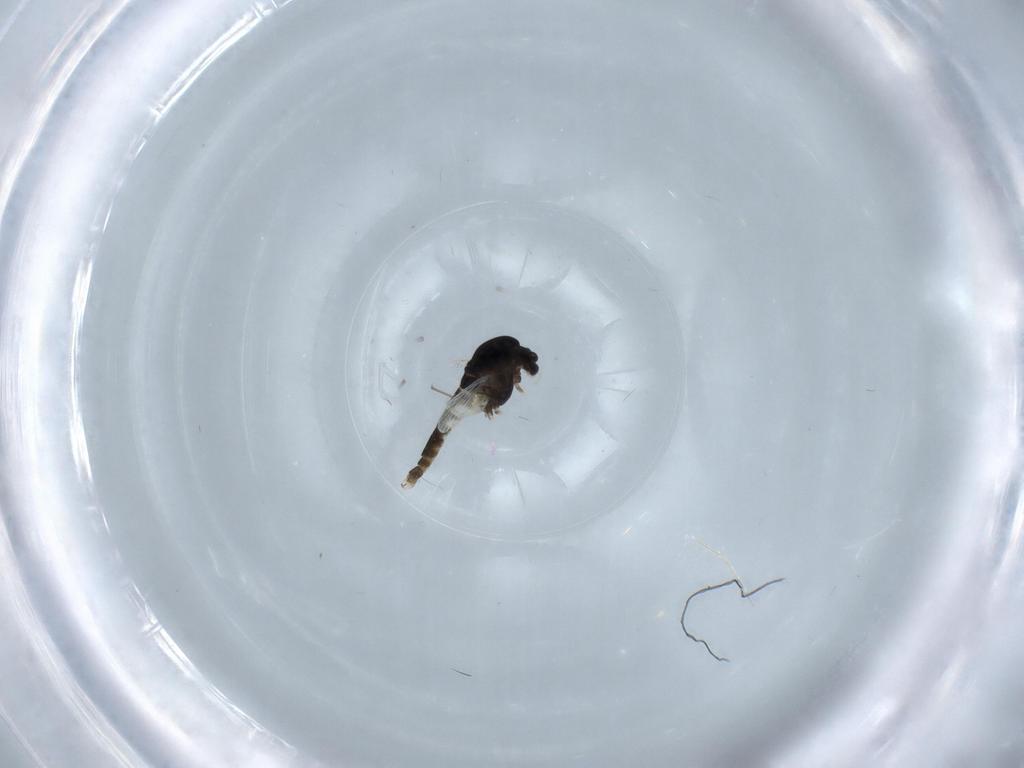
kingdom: Animalia
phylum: Arthropoda
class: Insecta
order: Diptera
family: Chironomidae
